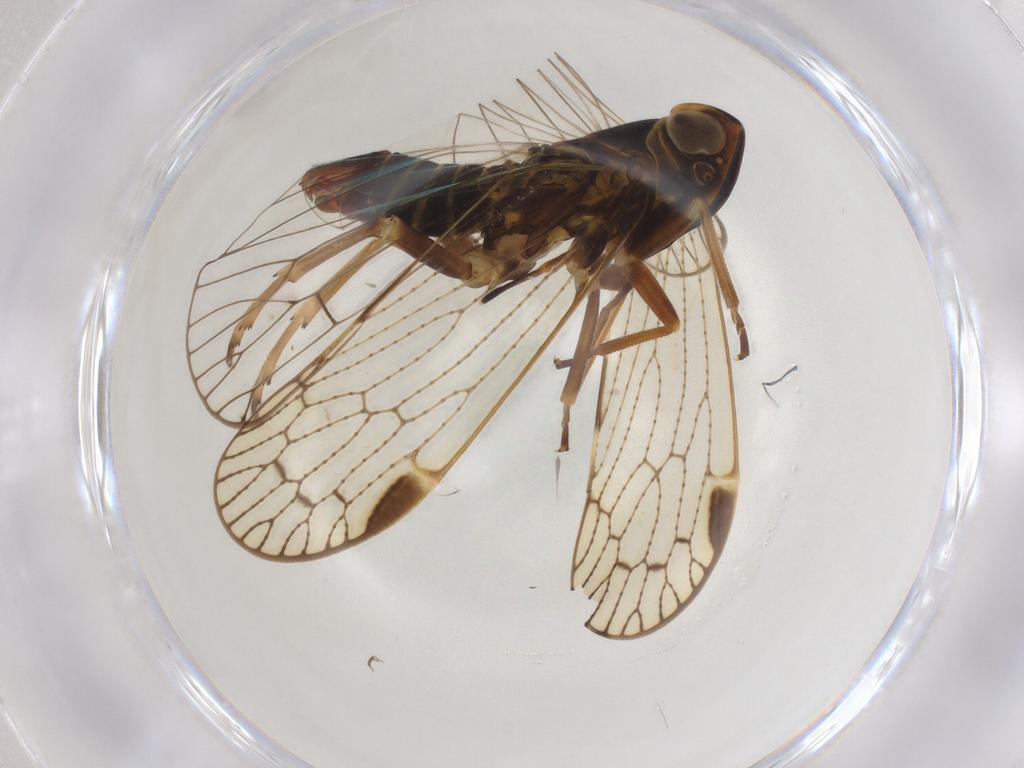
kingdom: Animalia
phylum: Arthropoda
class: Insecta
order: Hemiptera
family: Cixiidae
